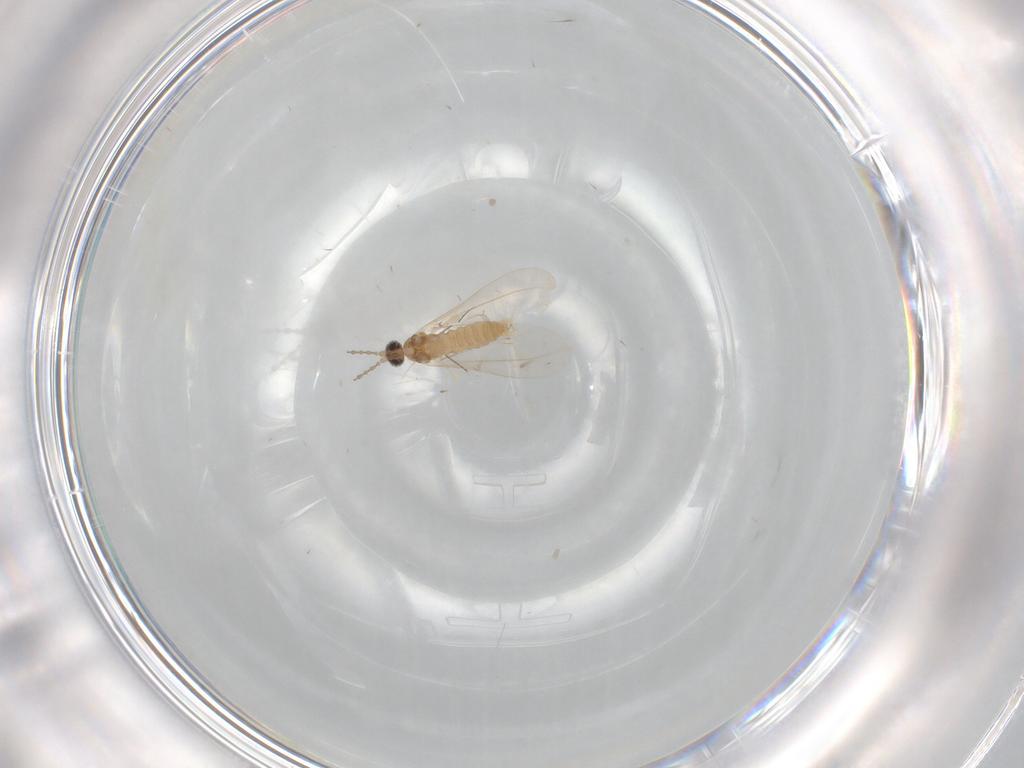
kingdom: Animalia
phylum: Arthropoda
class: Insecta
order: Diptera
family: Cecidomyiidae
